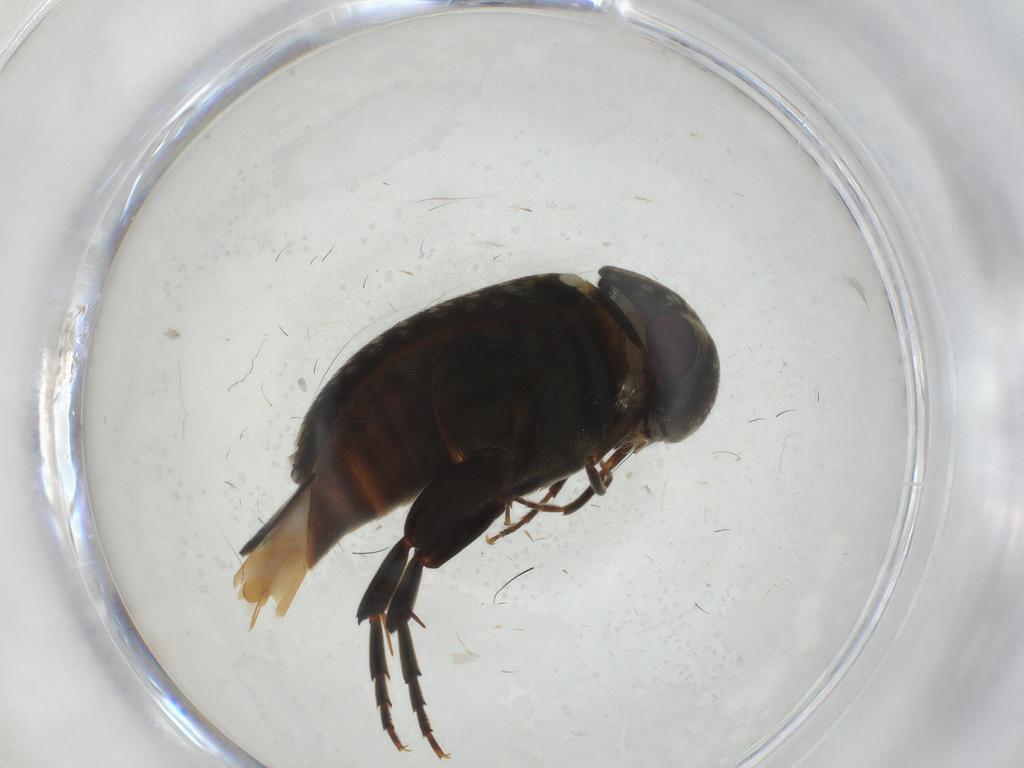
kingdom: Animalia
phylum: Arthropoda
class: Insecta
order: Coleoptera
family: Mordellidae
